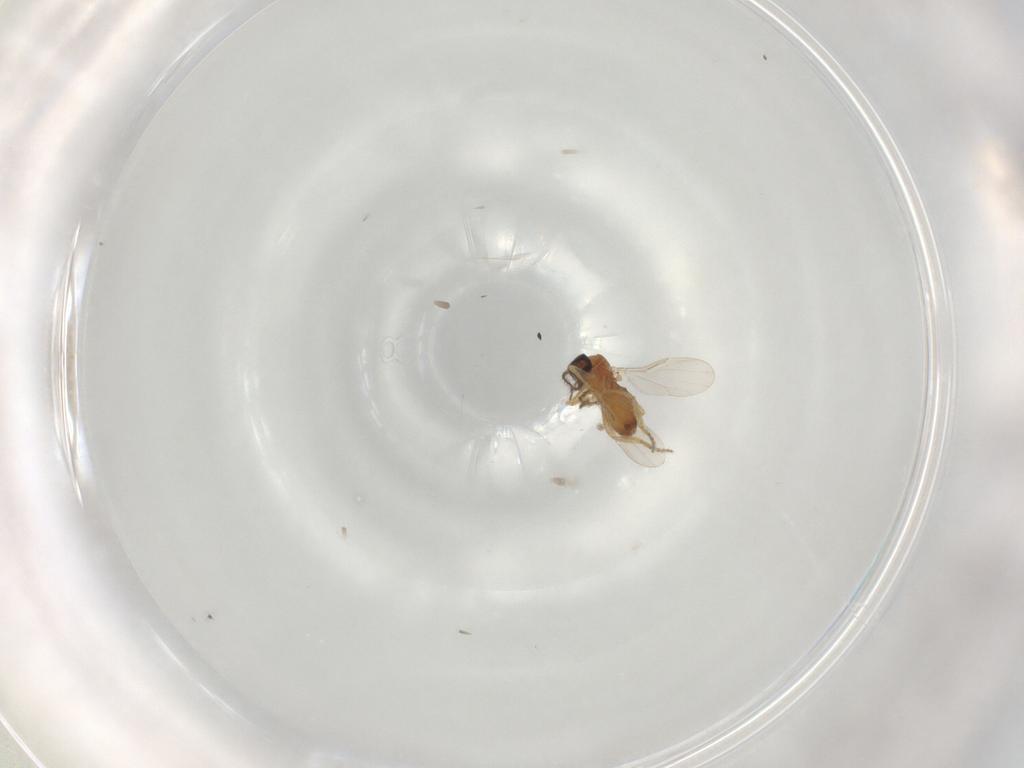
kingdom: Animalia
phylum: Arthropoda
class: Insecta
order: Diptera
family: Ceratopogonidae
